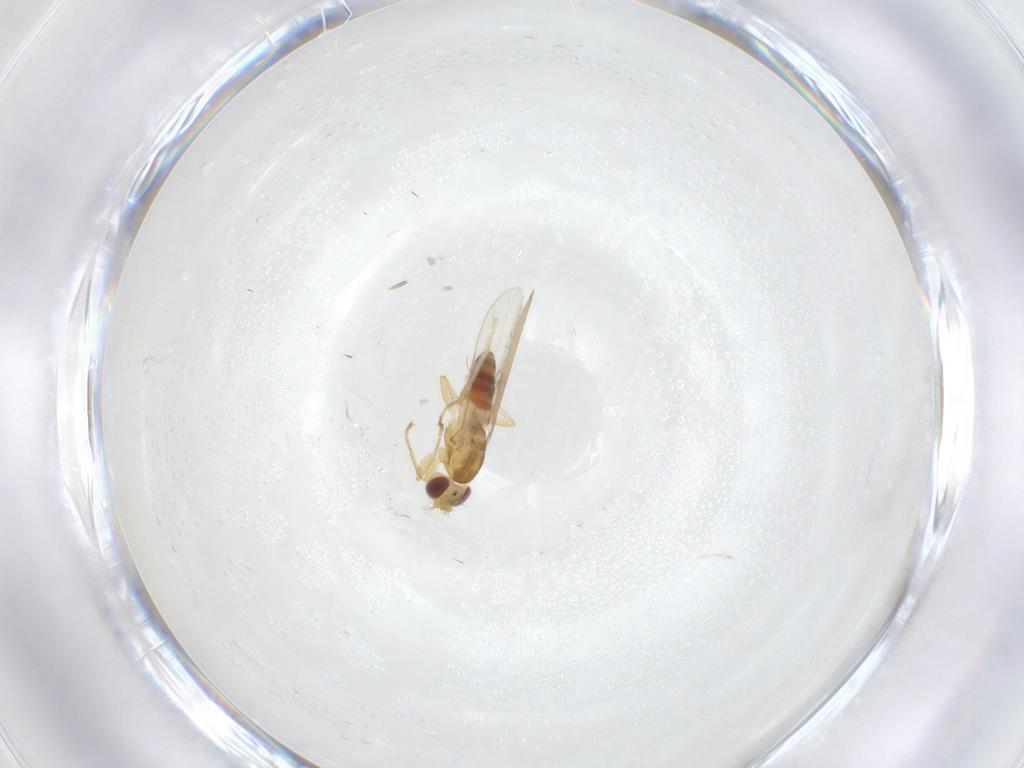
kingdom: Animalia
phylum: Arthropoda
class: Insecta
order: Diptera
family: Periscelididae
